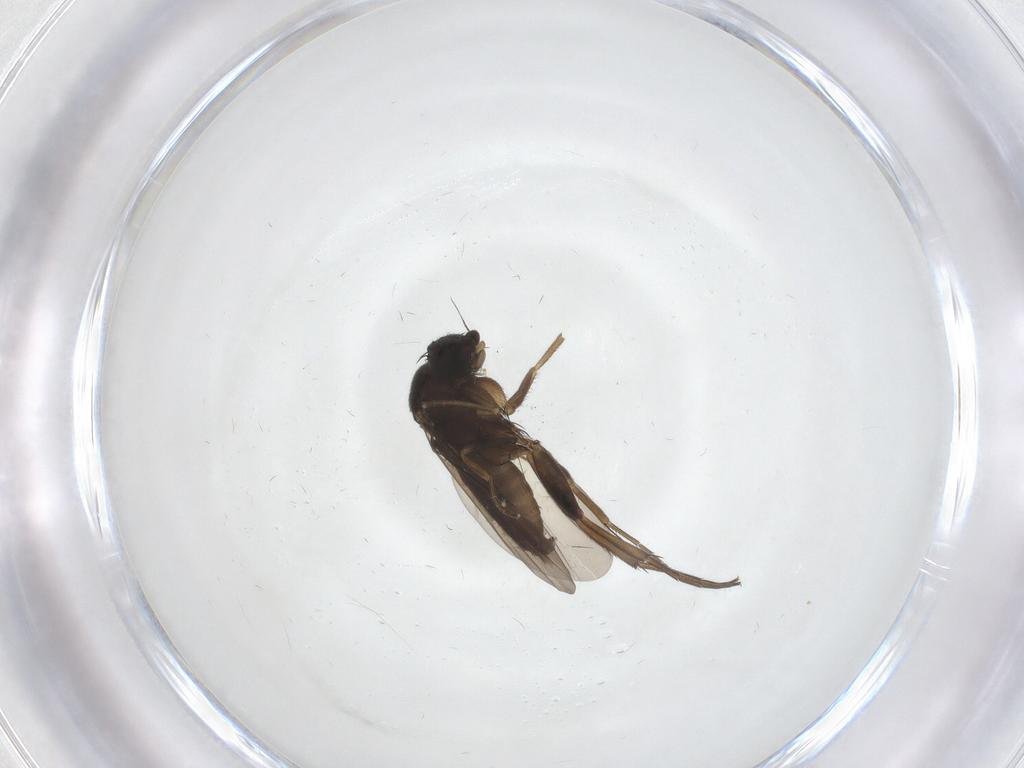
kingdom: Animalia
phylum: Arthropoda
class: Insecta
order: Diptera
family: Phoridae
